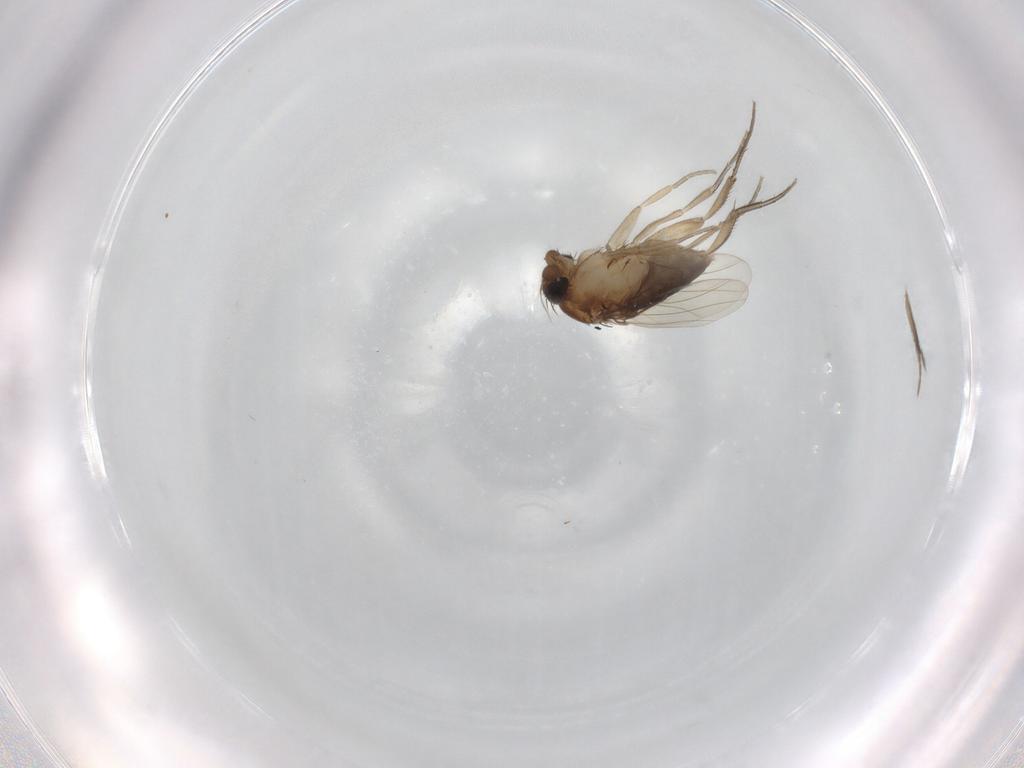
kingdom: Animalia
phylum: Arthropoda
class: Insecta
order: Diptera
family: Phoridae
